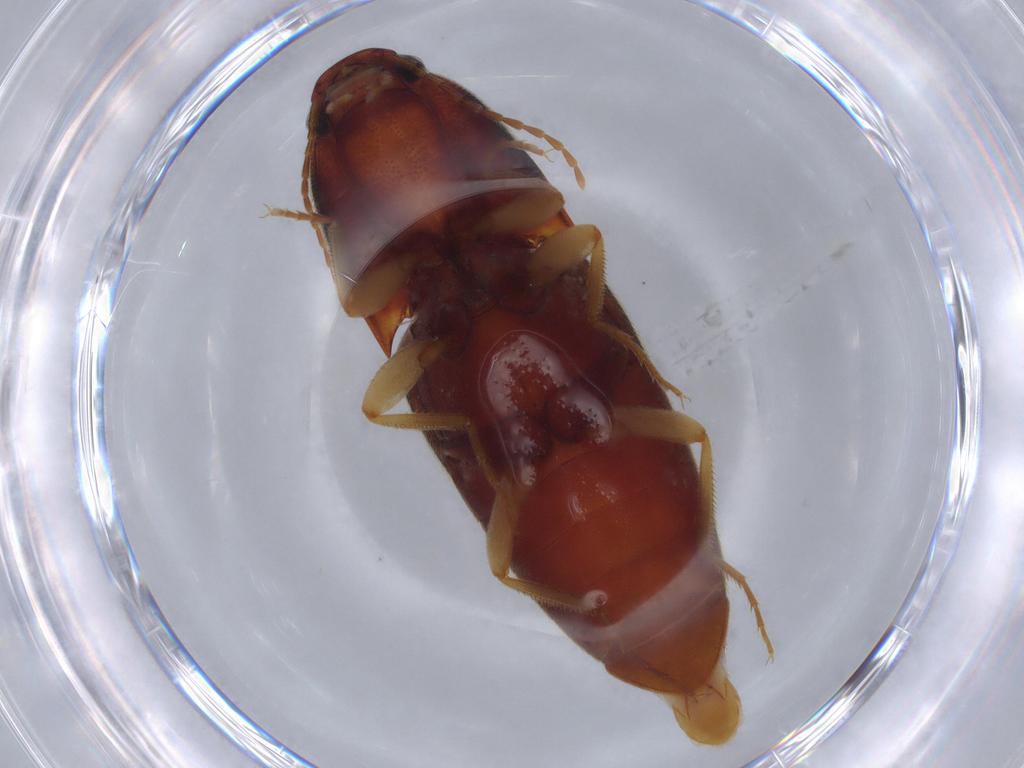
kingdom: Animalia
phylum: Arthropoda
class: Insecta
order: Coleoptera
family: Elateridae
